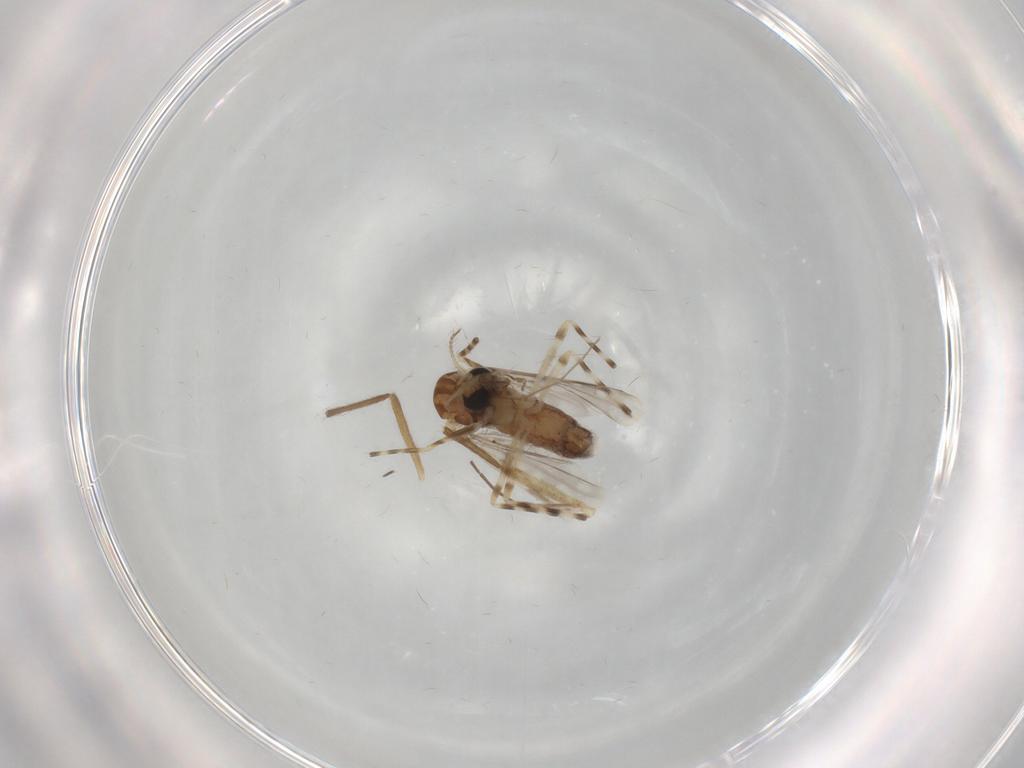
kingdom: Animalia
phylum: Arthropoda
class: Insecta
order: Diptera
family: Chironomidae
